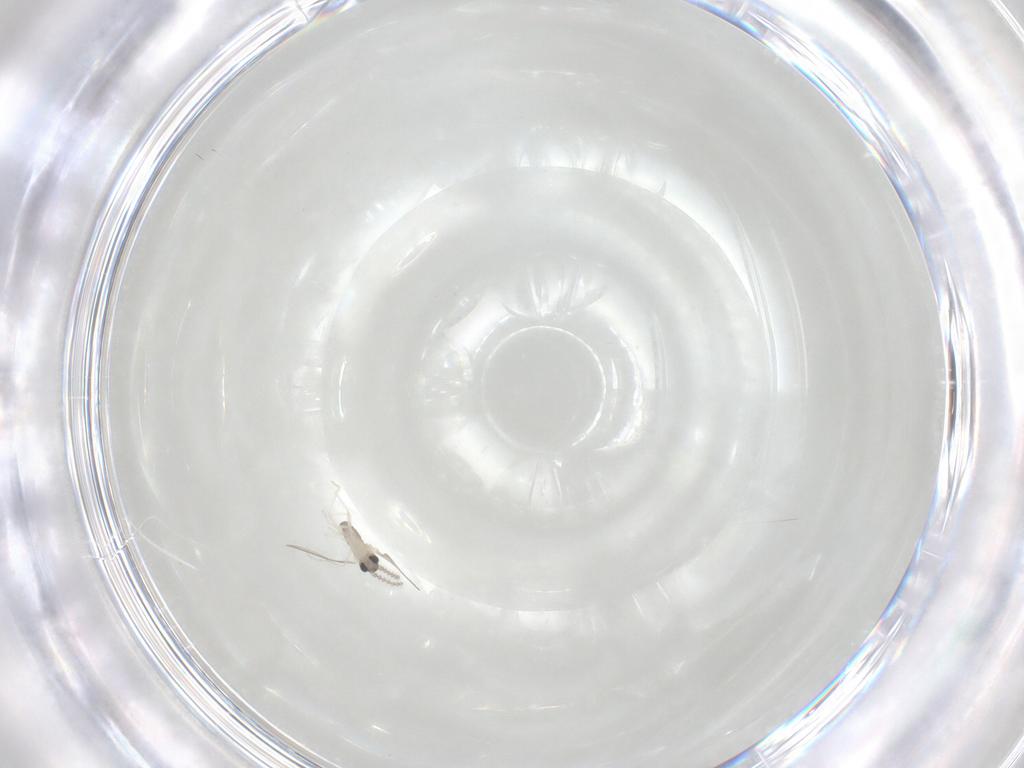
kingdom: Animalia
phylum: Arthropoda
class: Insecta
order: Diptera
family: Cecidomyiidae
